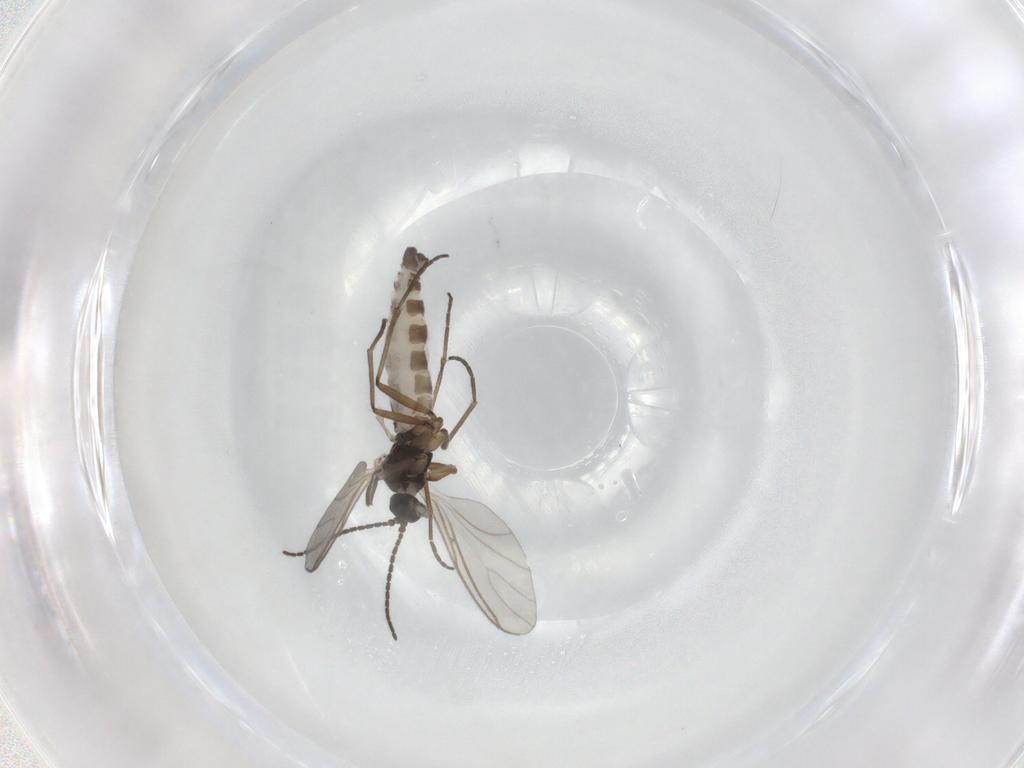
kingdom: Animalia
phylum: Arthropoda
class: Insecta
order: Diptera
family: Sciaridae
